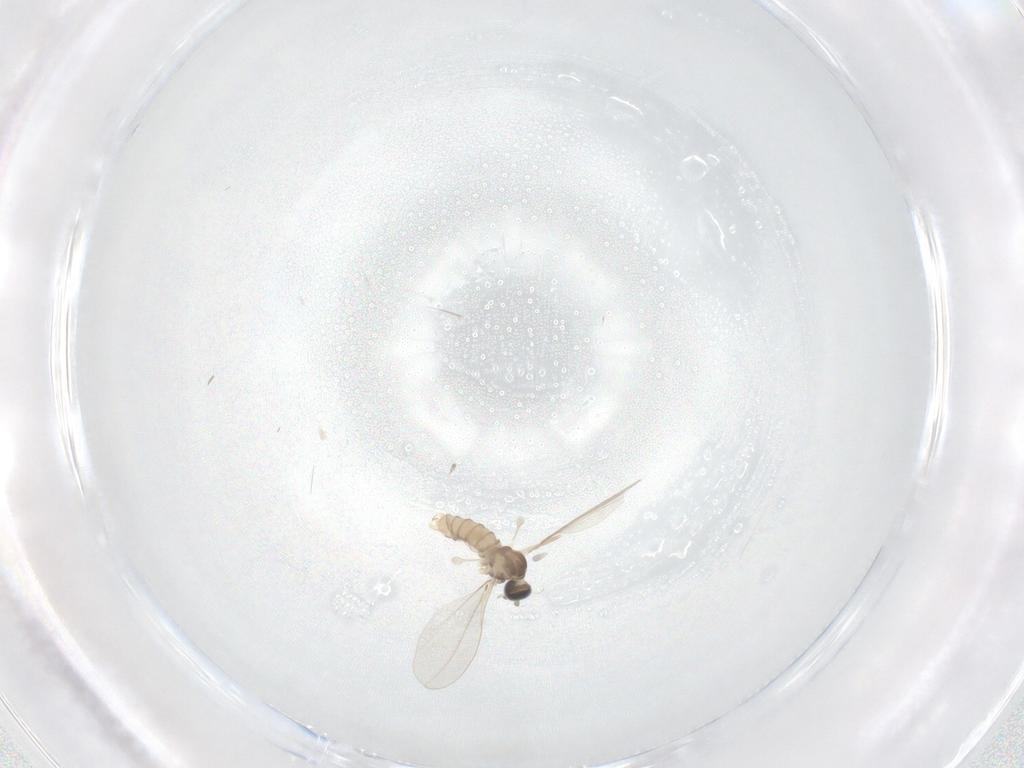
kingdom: Animalia
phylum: Arthropoda
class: Insecta
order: Diptera
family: Cecidomyiidae
